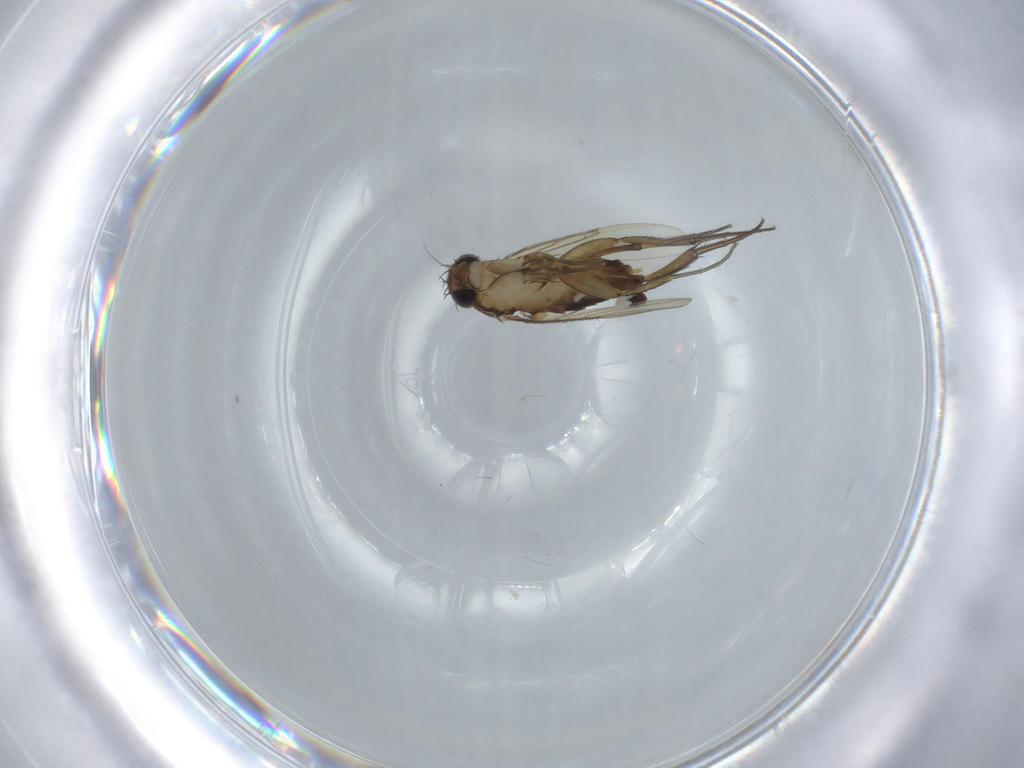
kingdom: Animalia
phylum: Arthropoda
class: Insecta
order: Diptera
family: Phoridae
